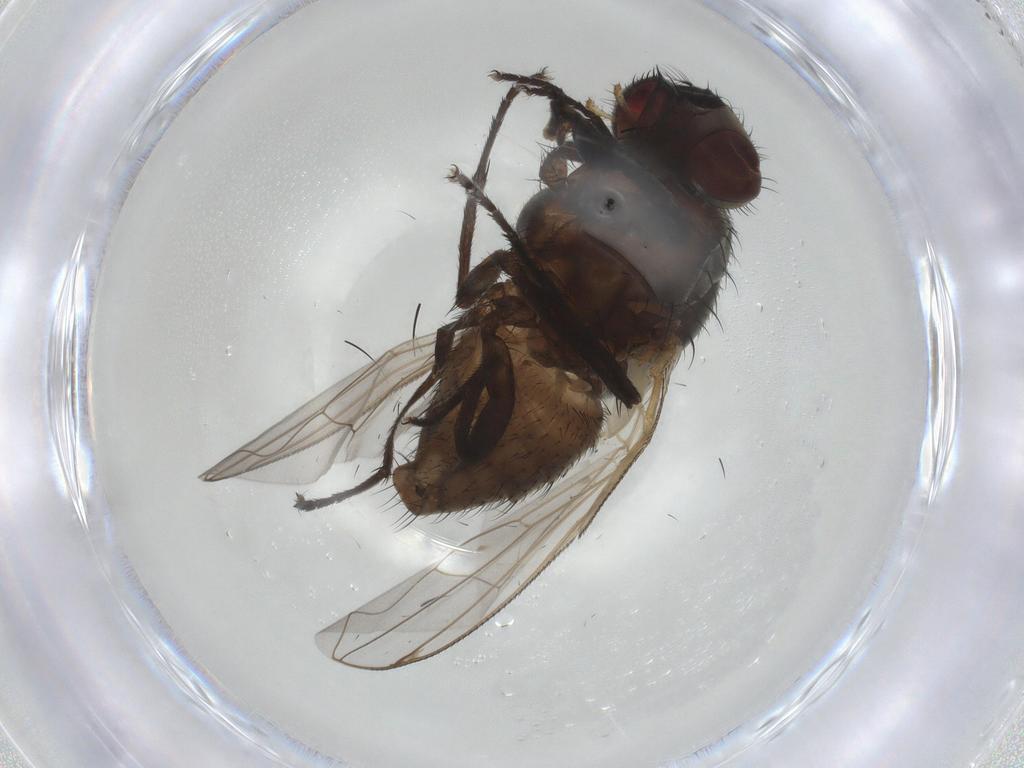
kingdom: Animalia
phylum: Arthropoda
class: Insecta
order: Diptera
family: Muscidae
